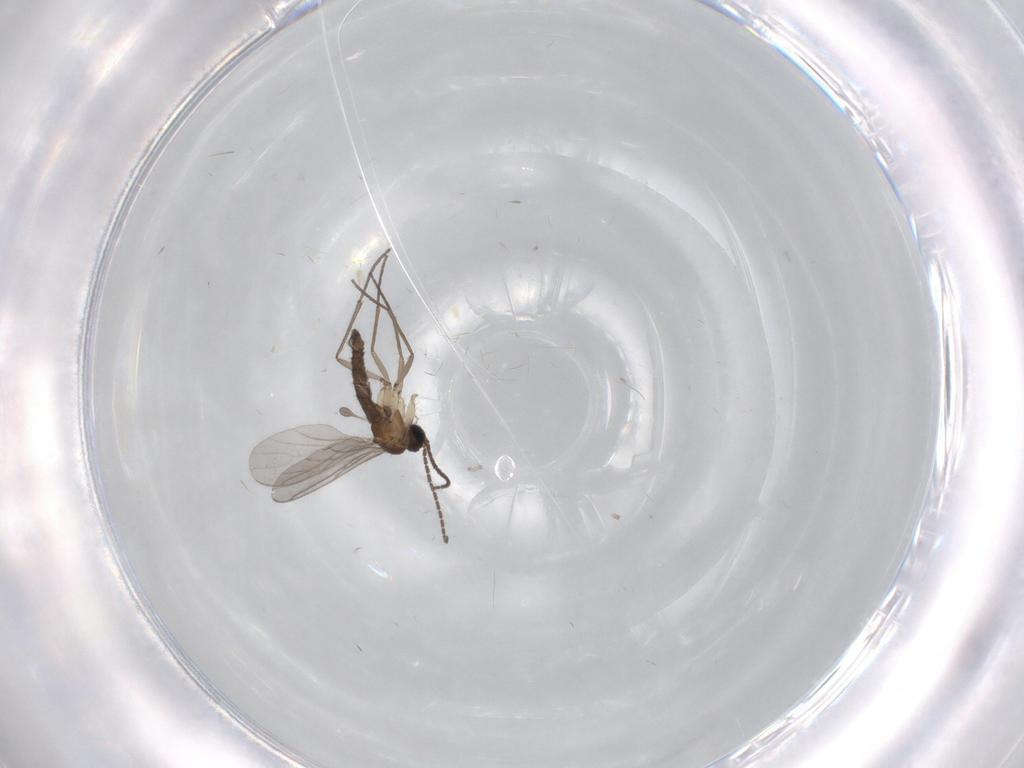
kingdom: Animalia
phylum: Arthropoda
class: Insecta
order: Diptera
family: Sciaridae
